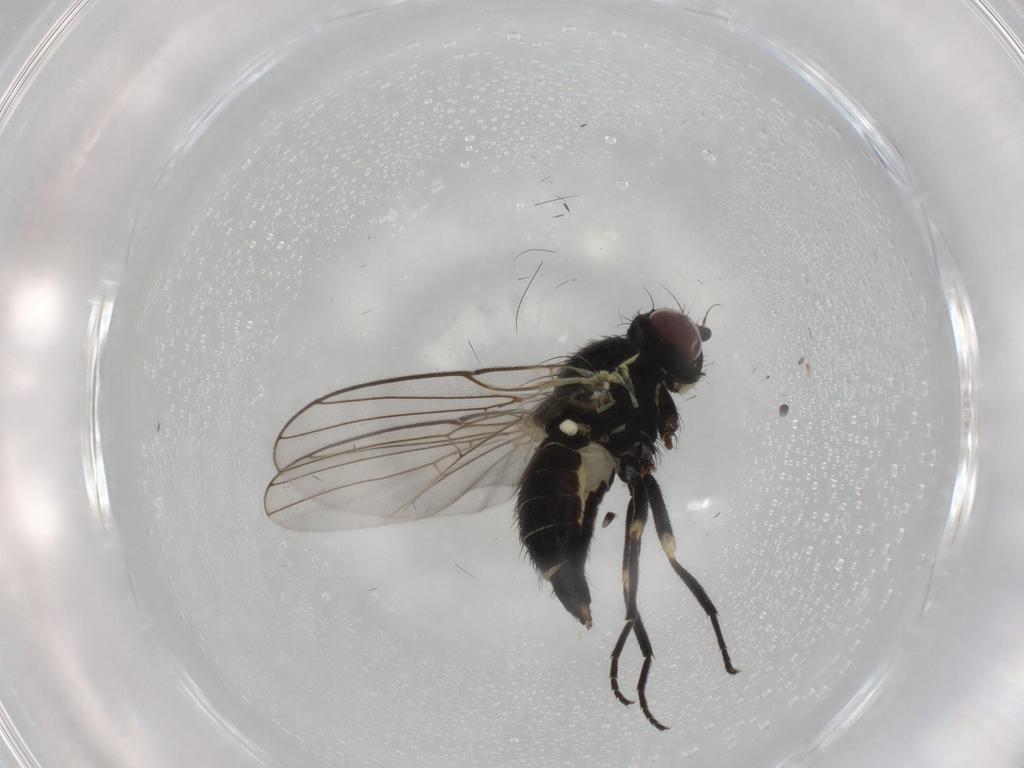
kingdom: Animalia
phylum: Arthropoda
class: Insecta
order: Diptera
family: Agromyzidae
